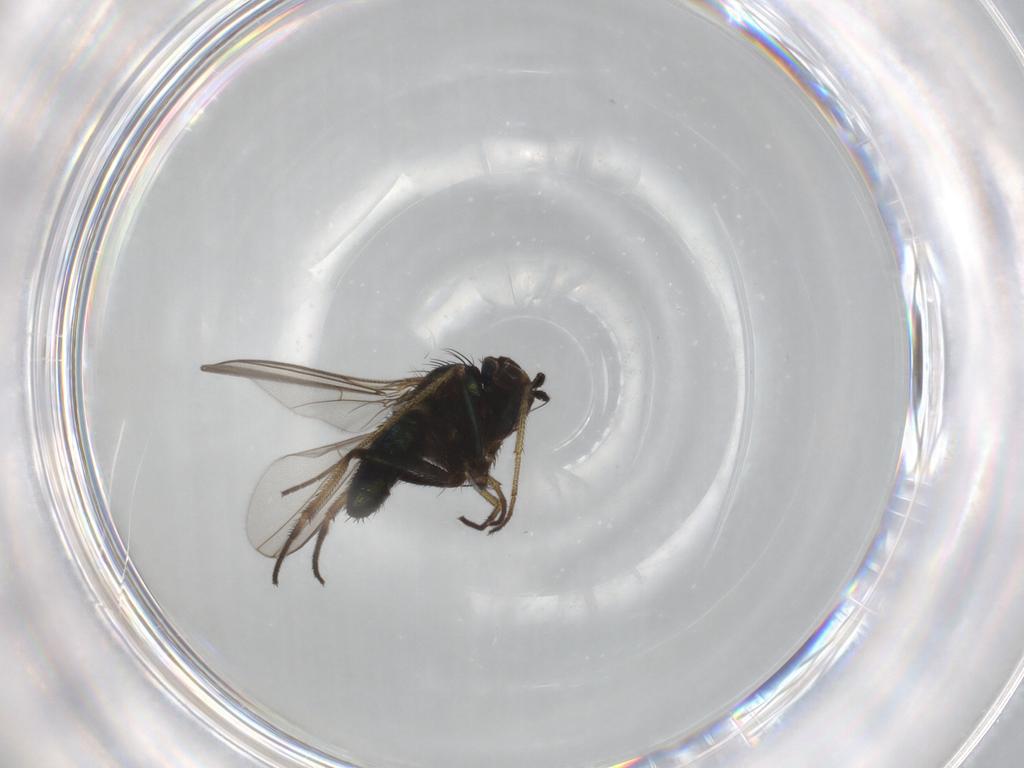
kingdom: Animalia
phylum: Arthropoda
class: Insecta
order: Diptera
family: Dolichopodidae
